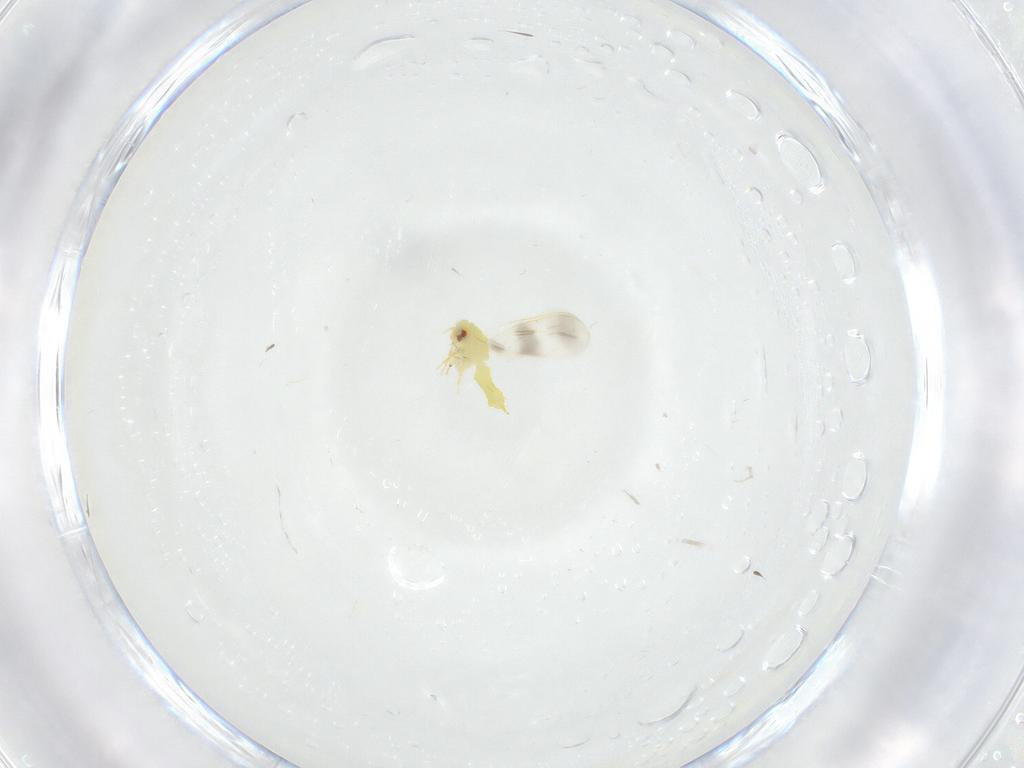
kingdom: Animalia
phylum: Arthropoda
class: Insecta
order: Hemiptera
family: Aleyrodidae
